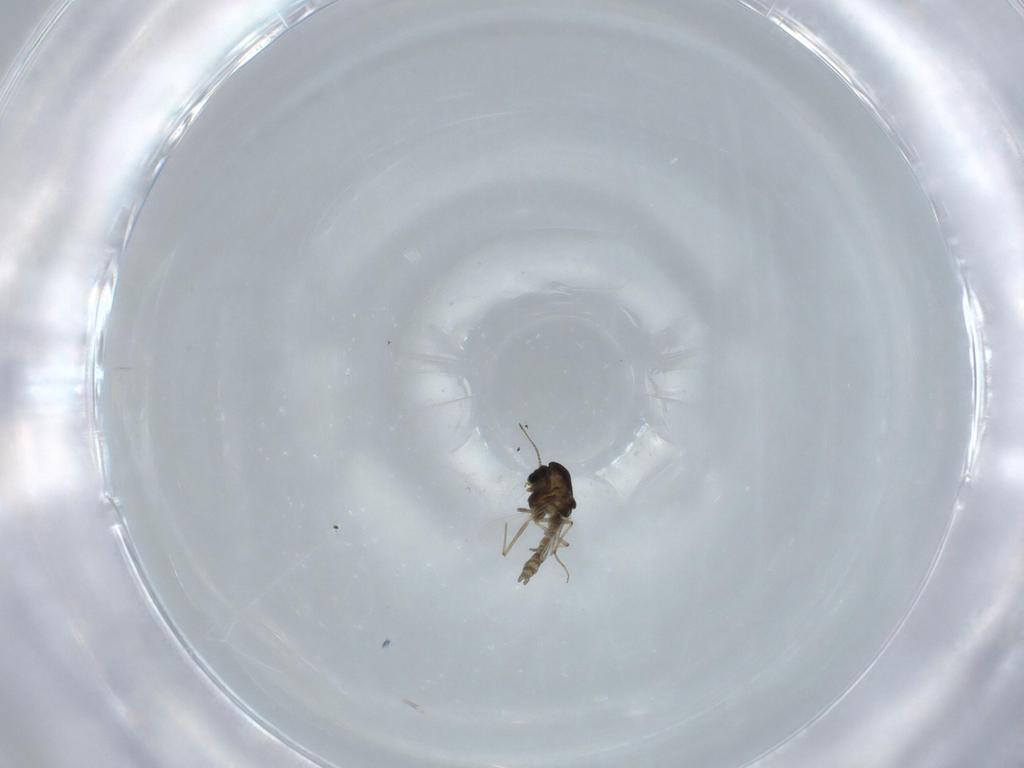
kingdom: Animalia
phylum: Arthropoda
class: Insecta
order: Diptera
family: Chironomidae
